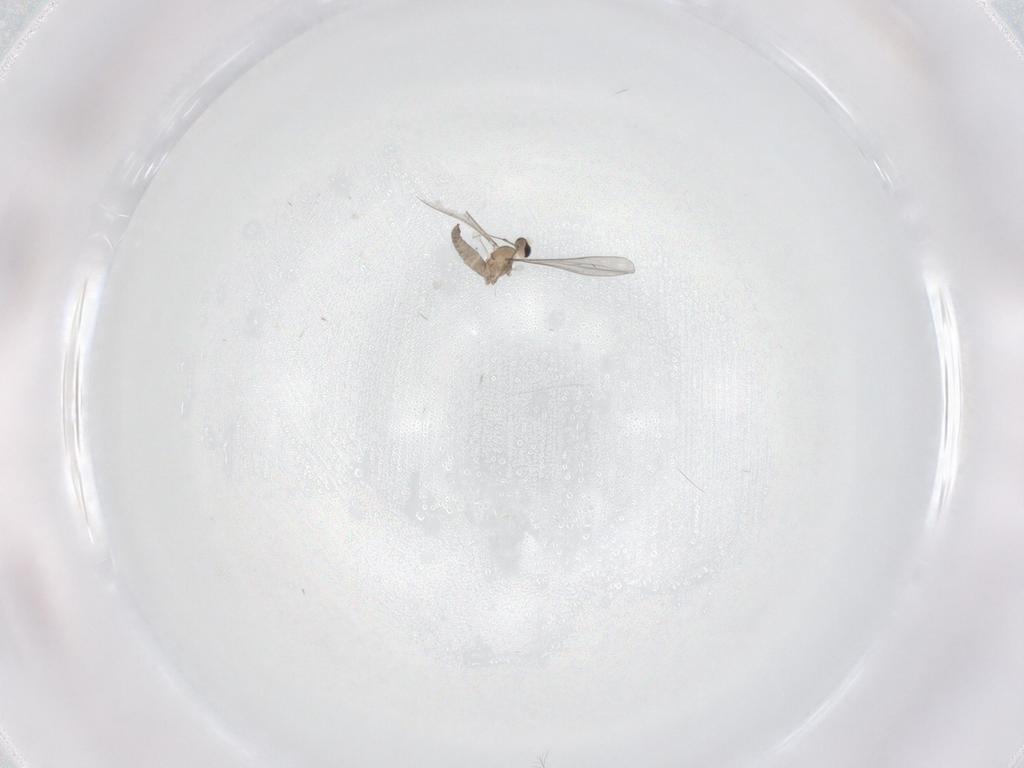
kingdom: Animalia
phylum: Arthropoda
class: Insecta
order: Diptera
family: Cecidomyiidae
